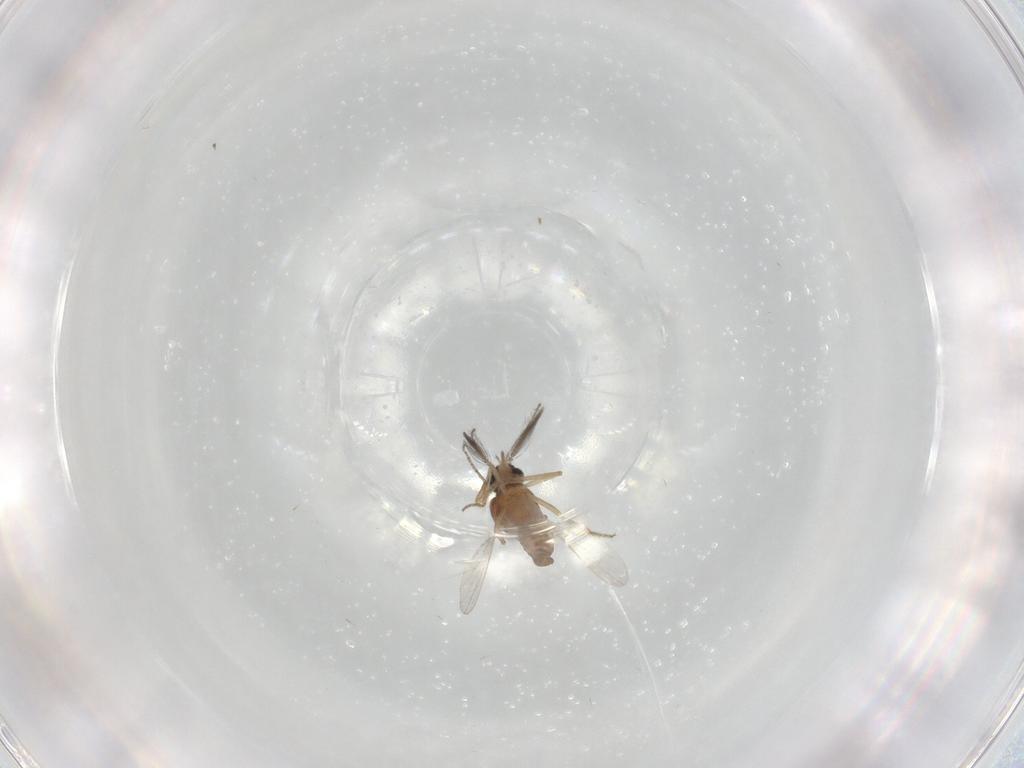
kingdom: Animalia
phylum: Arthropoda
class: Insecta
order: Diptera
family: Ceratopogonidae
